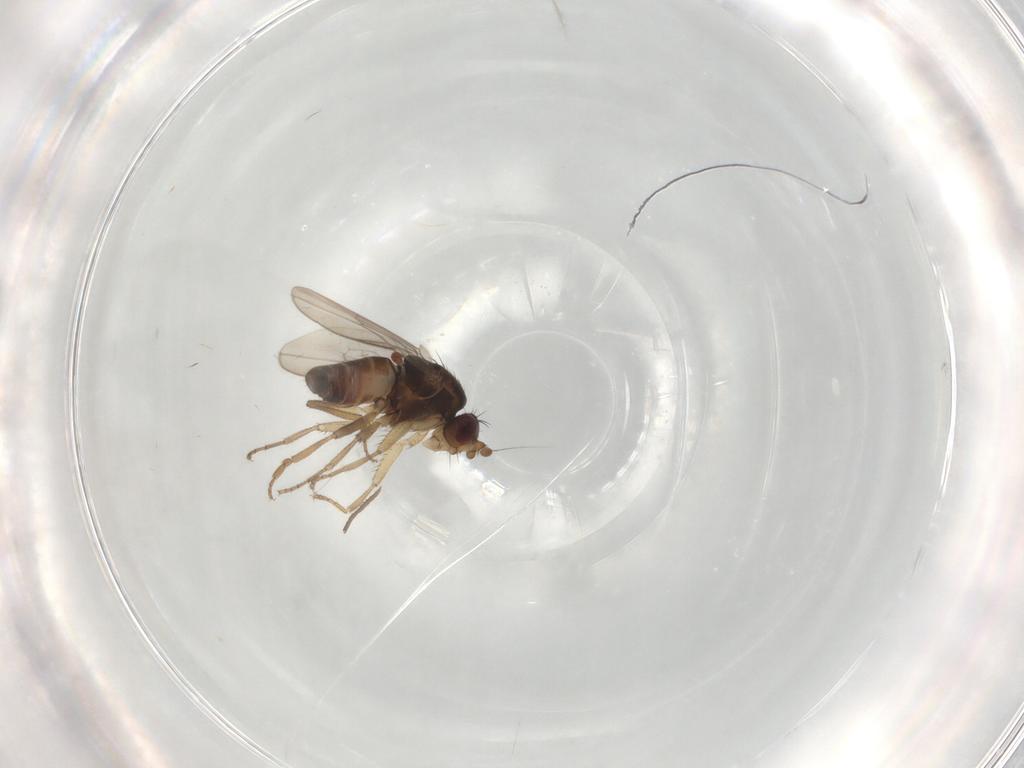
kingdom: Animalia
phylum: Arthropoda
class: Insecta
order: Diptera
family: Sphaeroceridae
